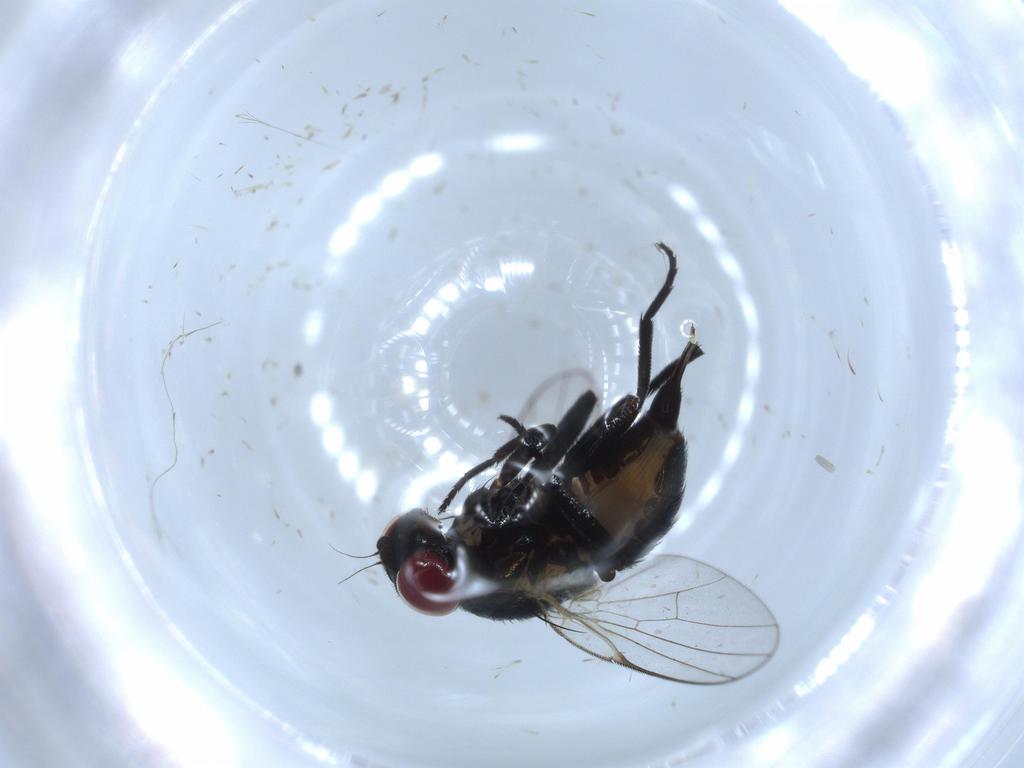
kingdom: Animalia
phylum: Arthropoda
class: Insecta
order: Diptera
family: Agromyzidae
